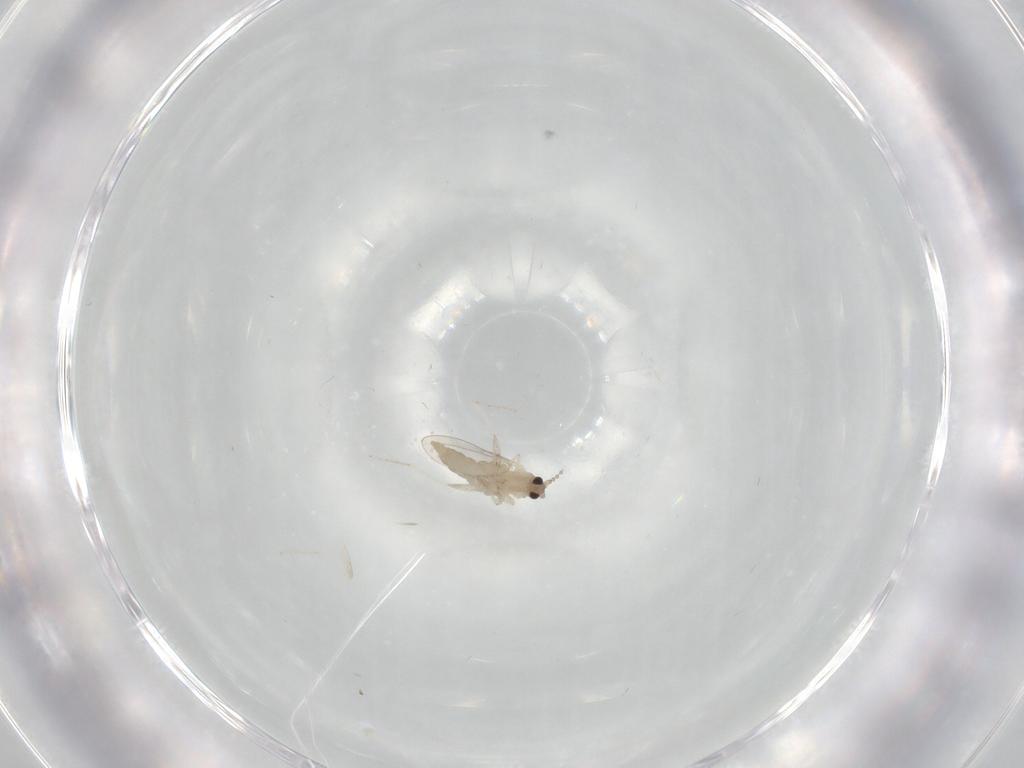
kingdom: Animalia
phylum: Arthropoda
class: Insecta
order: Diptera
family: Cecidomyiidae
